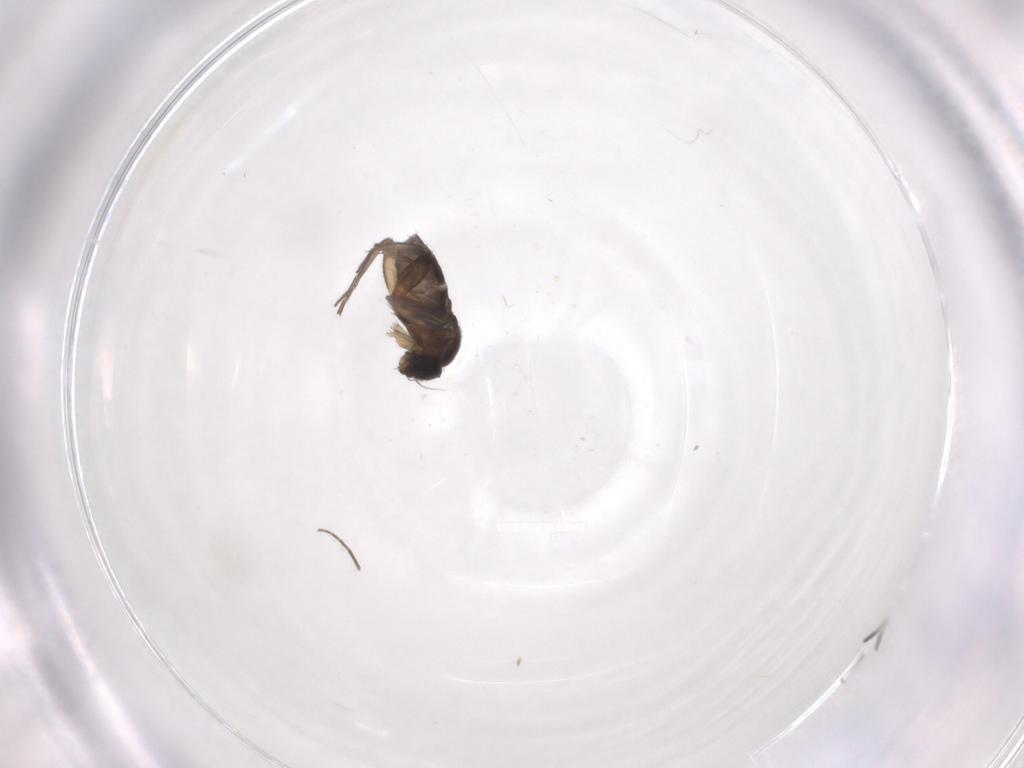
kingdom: Animalia
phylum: Arthropoda
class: Insecta
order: Diptera
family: Phoridae
